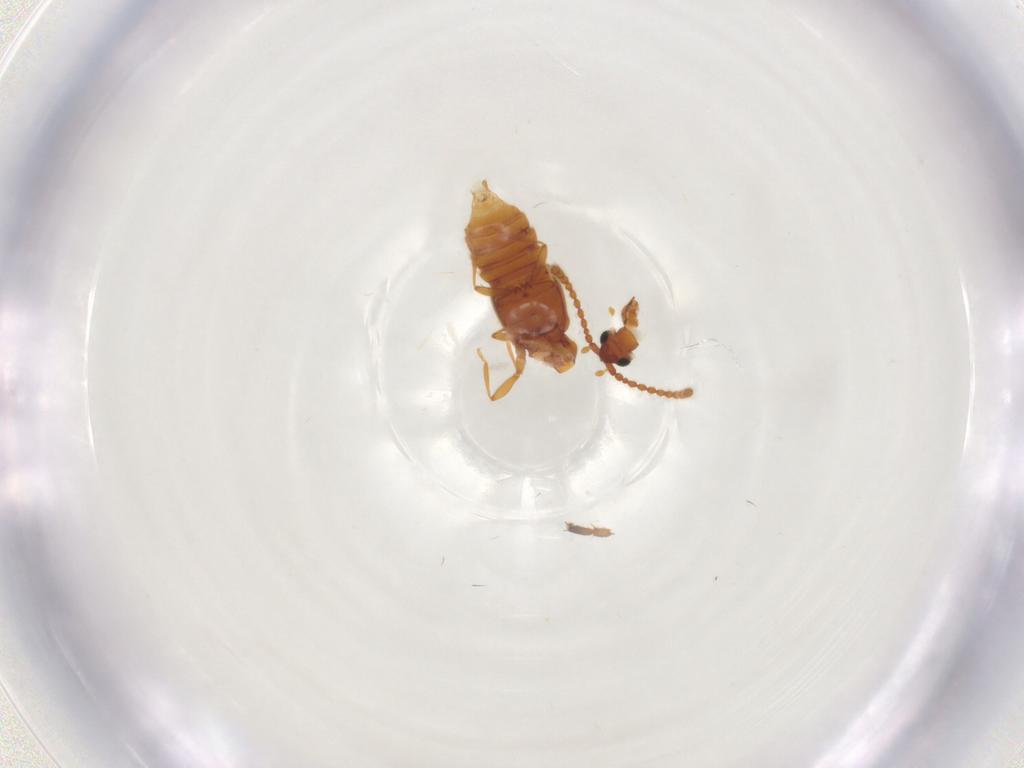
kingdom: Animalia
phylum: Arthropoda
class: Insecta
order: Coleoptera
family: Staphylinidae
